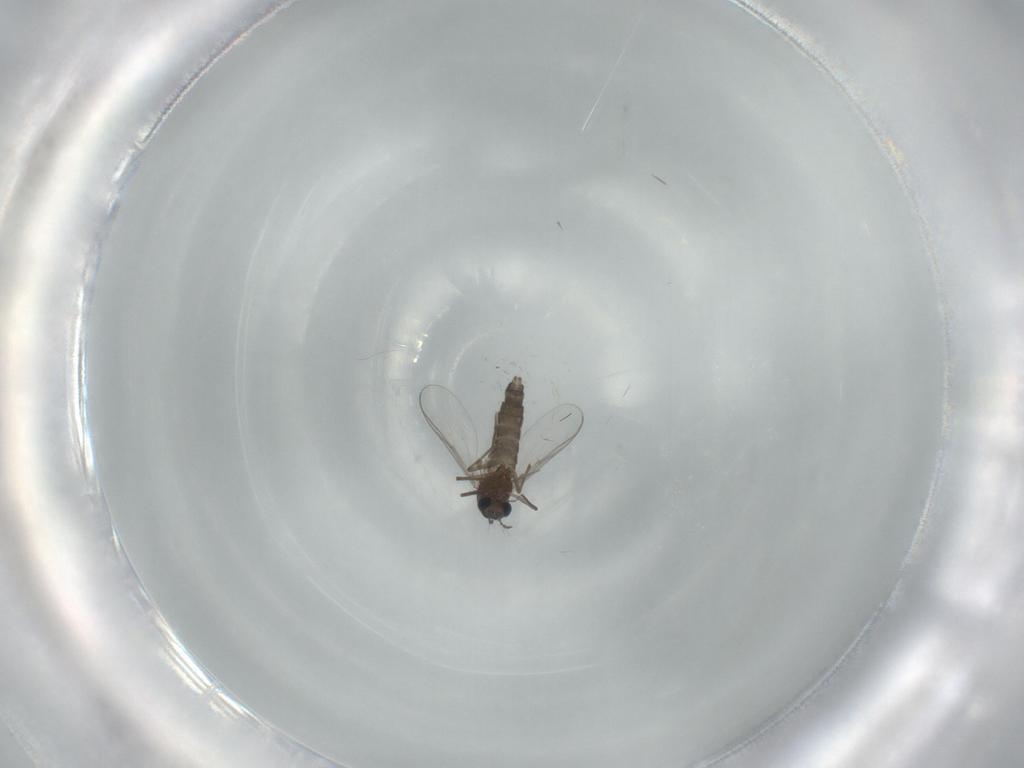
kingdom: Animalia
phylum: Arthropoda
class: Insecta
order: Diptera
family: Chironomidae
